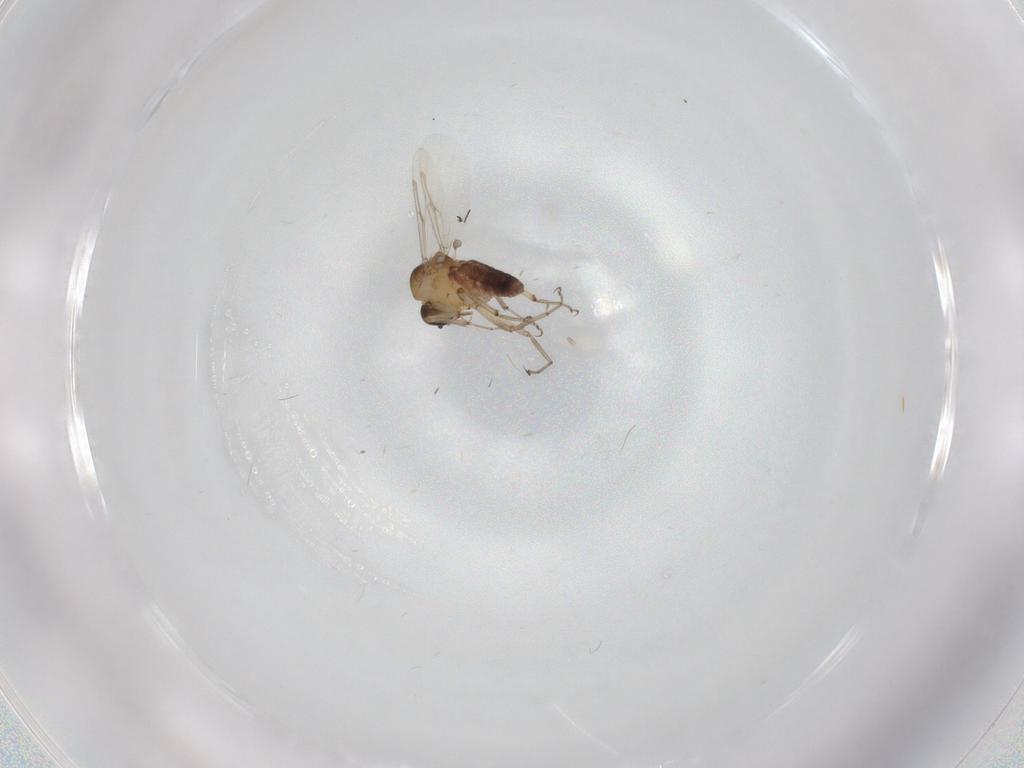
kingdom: Animalia
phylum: Arthropoda
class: Insecta
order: Diptera
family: Ceratopogonidae
